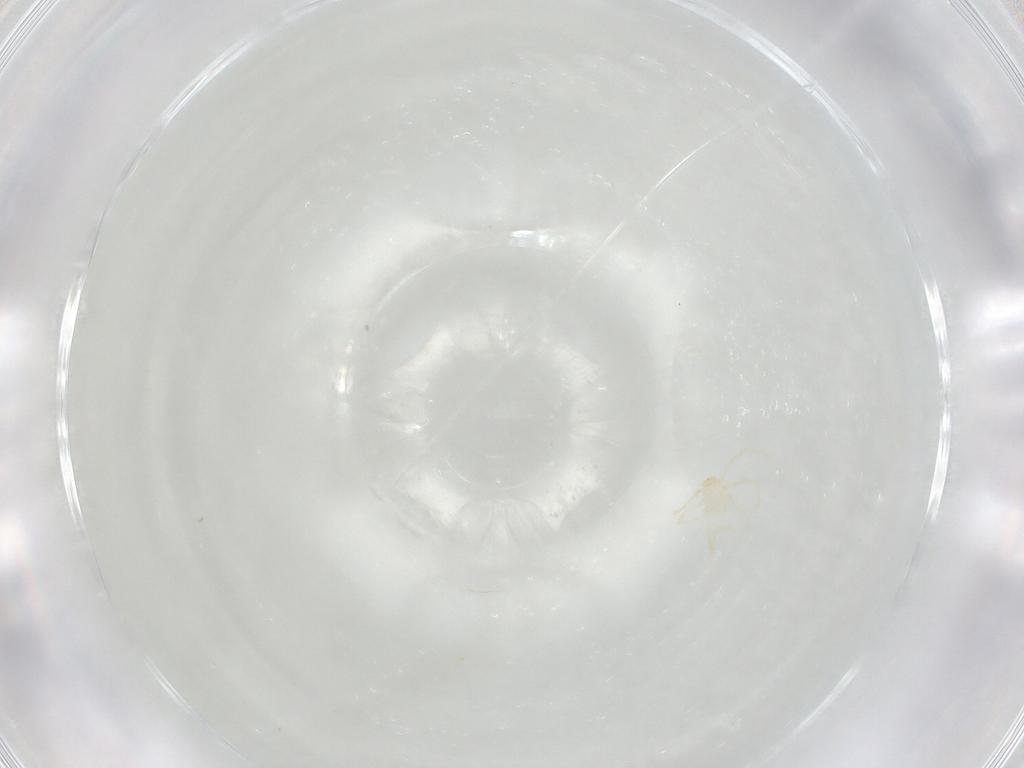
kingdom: Animalia
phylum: Arthropoda
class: Arachnida
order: Trombidiformes
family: Erythraeidae
